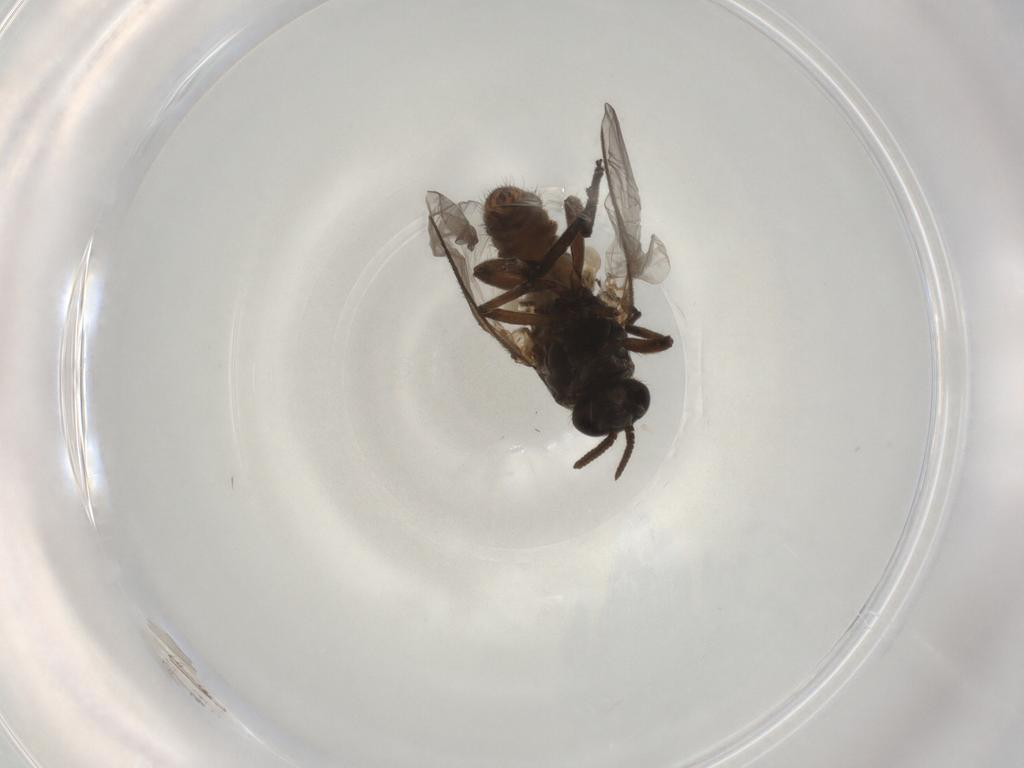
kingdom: Animalia
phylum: Arthropoda
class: Insecta
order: Diptera
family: Simuliidae
